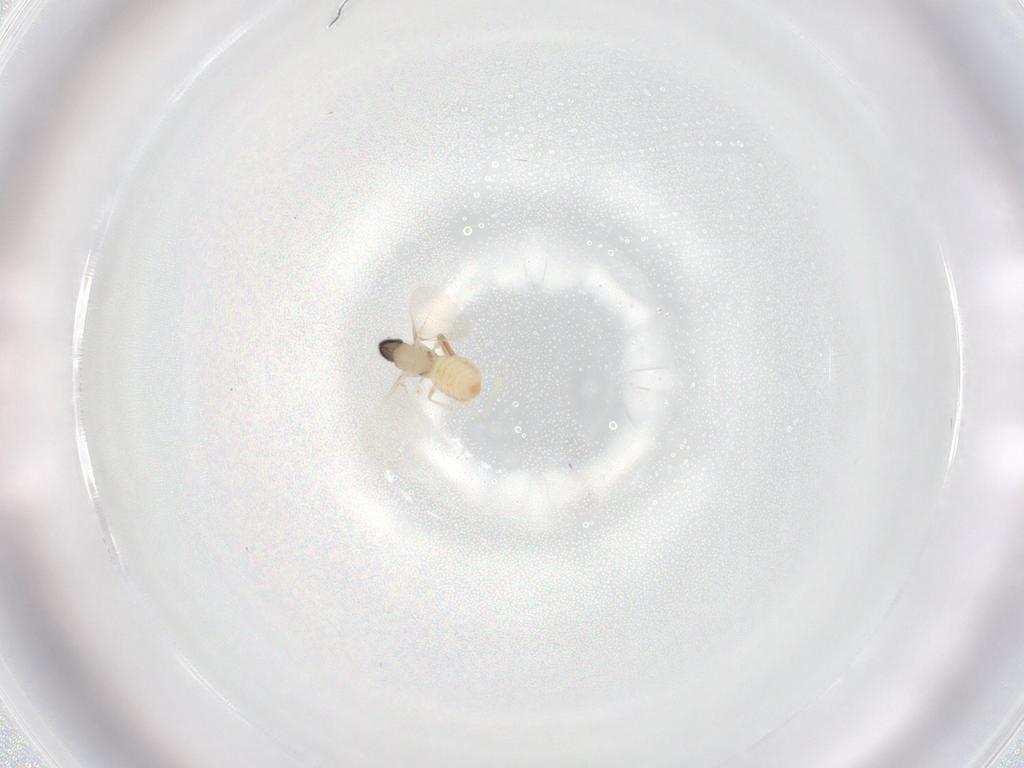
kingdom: Animalia
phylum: Arthropoda
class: Insecta
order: Diptera
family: Cecidomyiidae
